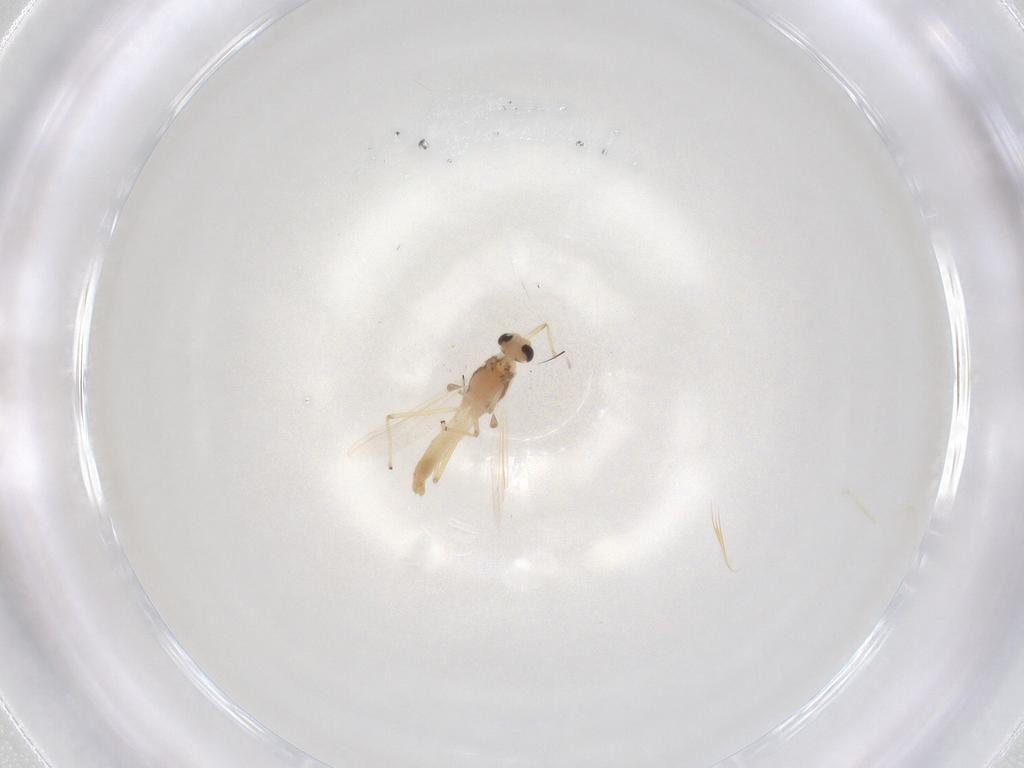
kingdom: Animalia
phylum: Arthropoda
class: Insecta
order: Diptera
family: Chironomidae
